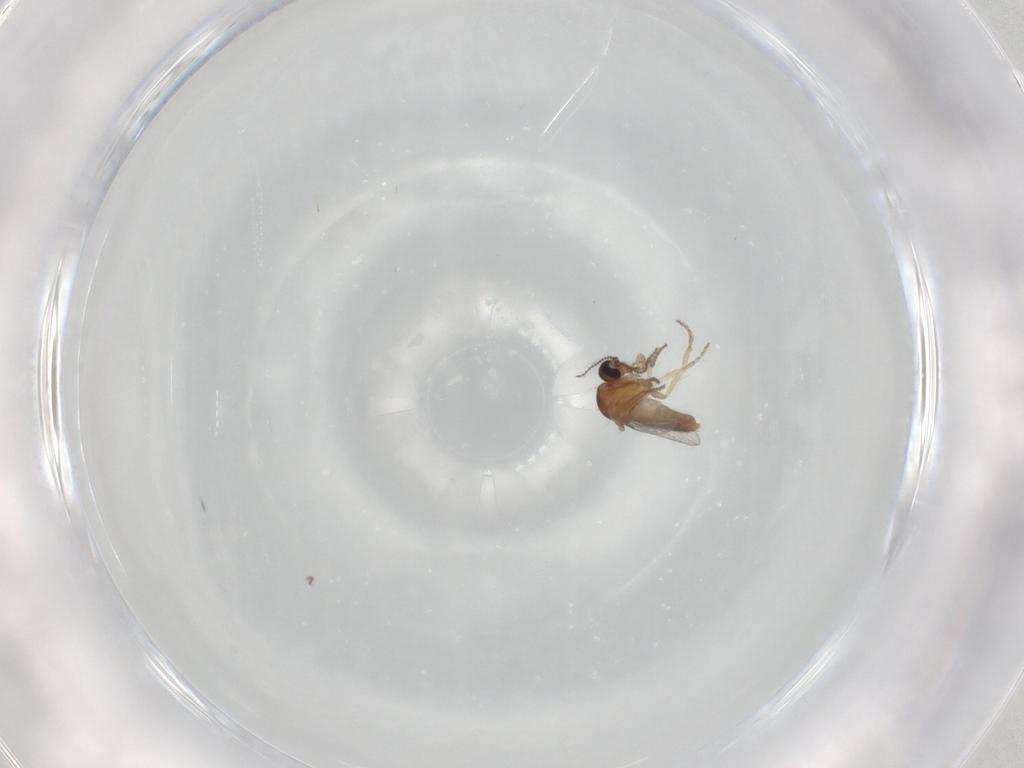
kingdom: Animalia
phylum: Arthropoda
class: Insecta
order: Diptera
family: Ceratopogonidae
